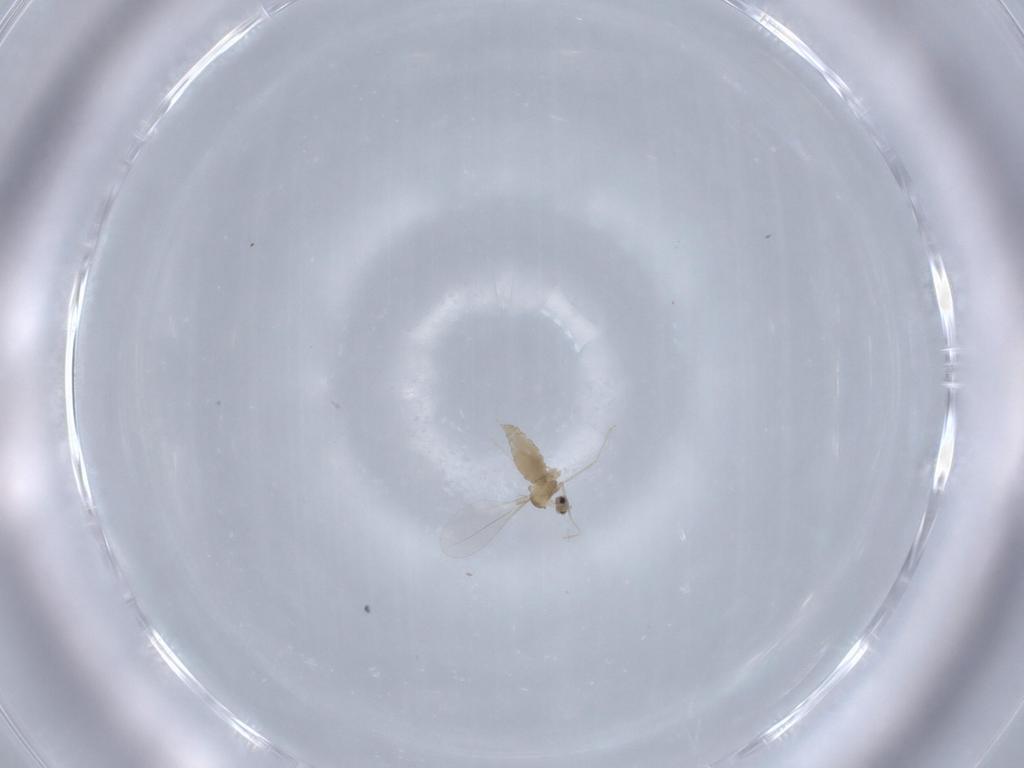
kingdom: Animalia
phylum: Arthropoda
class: Insecta
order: Diptera
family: Cecidomyiidae
